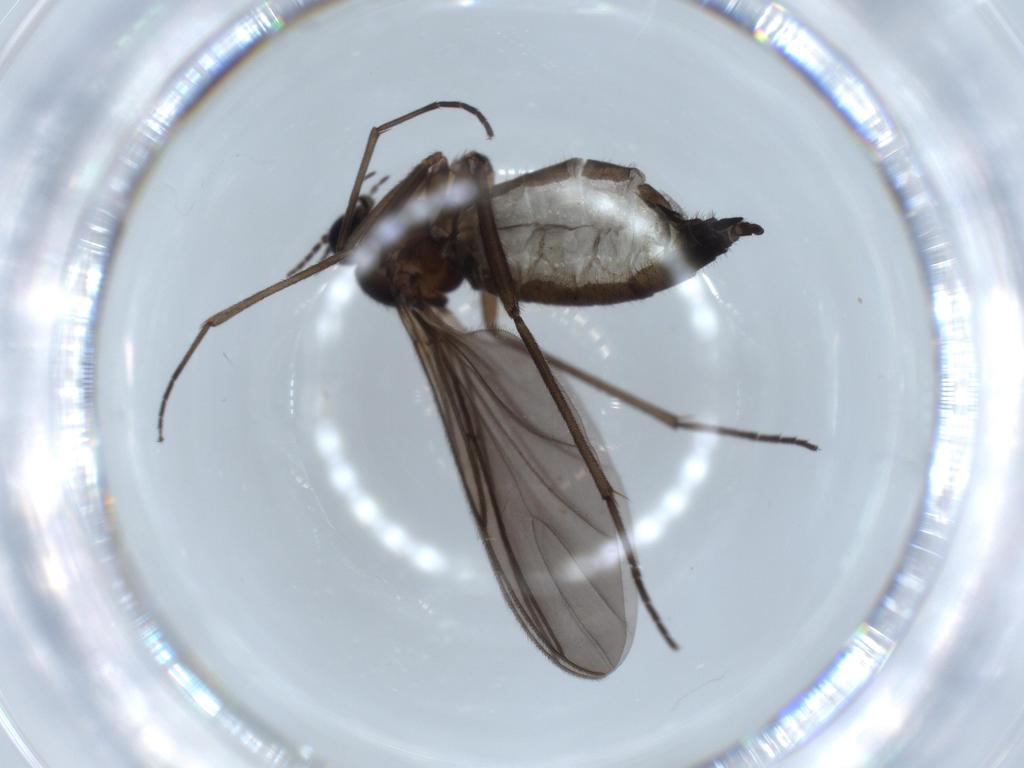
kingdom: Animalia
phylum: Arthropoda
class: Insecta
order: Diptera
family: Sciaridae
